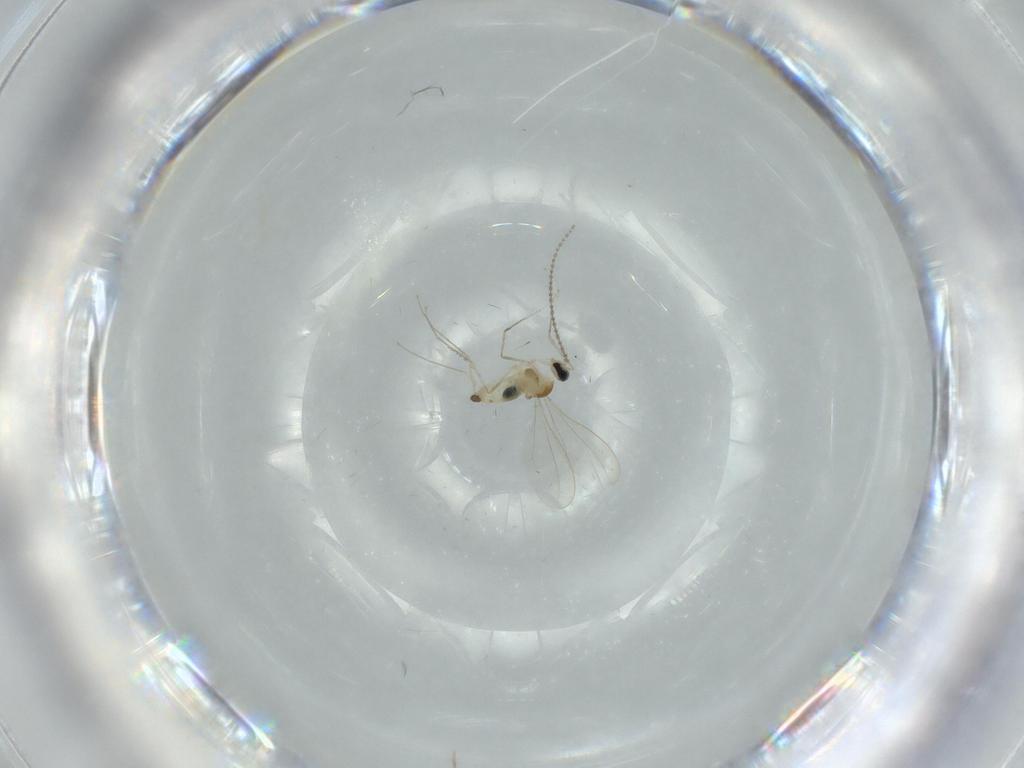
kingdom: Animalia
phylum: Arthropoda
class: Insecta
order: Diptera
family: Cecidomyiidae
